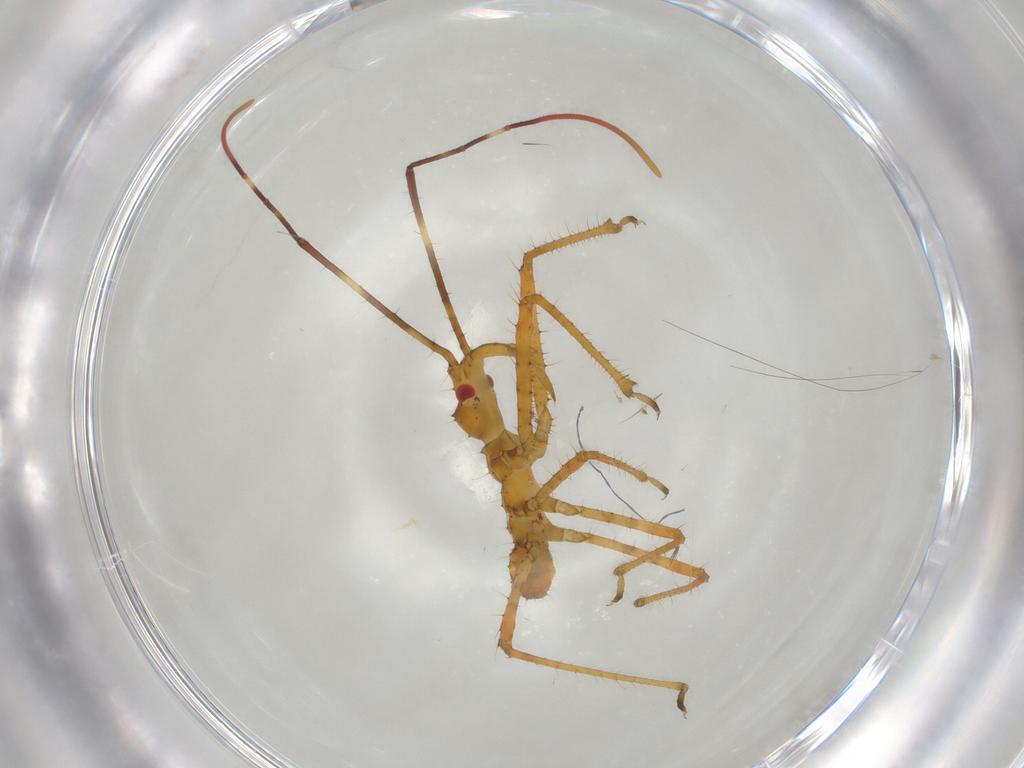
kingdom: Animalia
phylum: Arthropoda
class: Insecta
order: Hemiptera
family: Reduviidae
